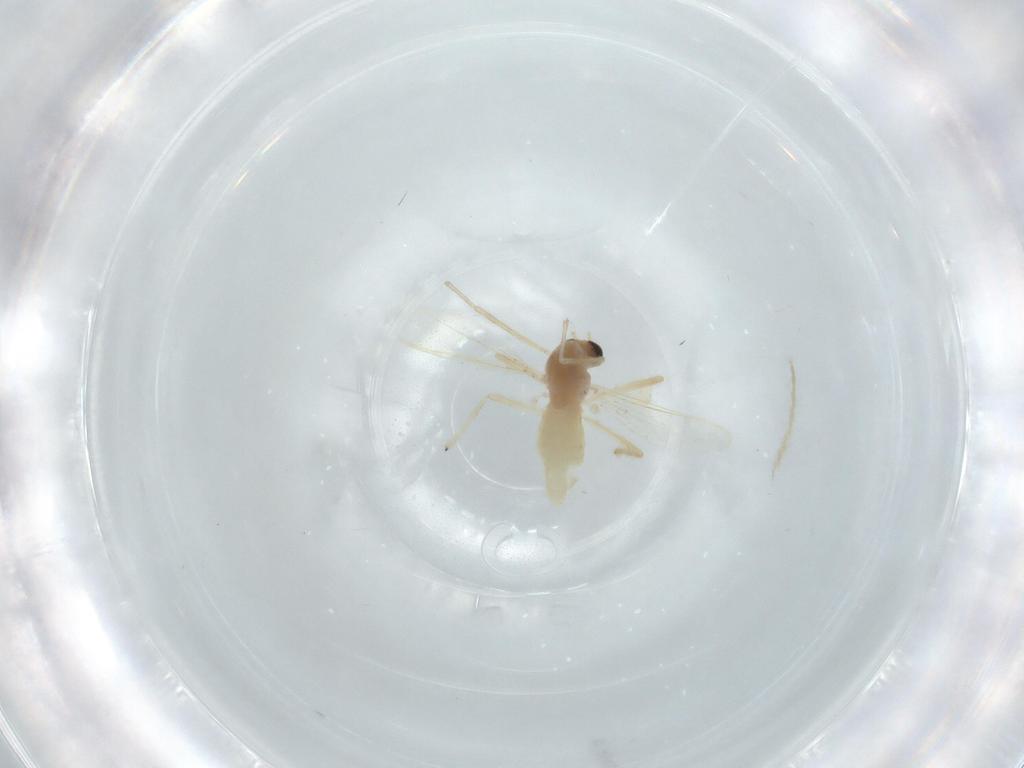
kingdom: Animalia
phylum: Arthropoda
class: Insecta
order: Diptera
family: Chironomidae
